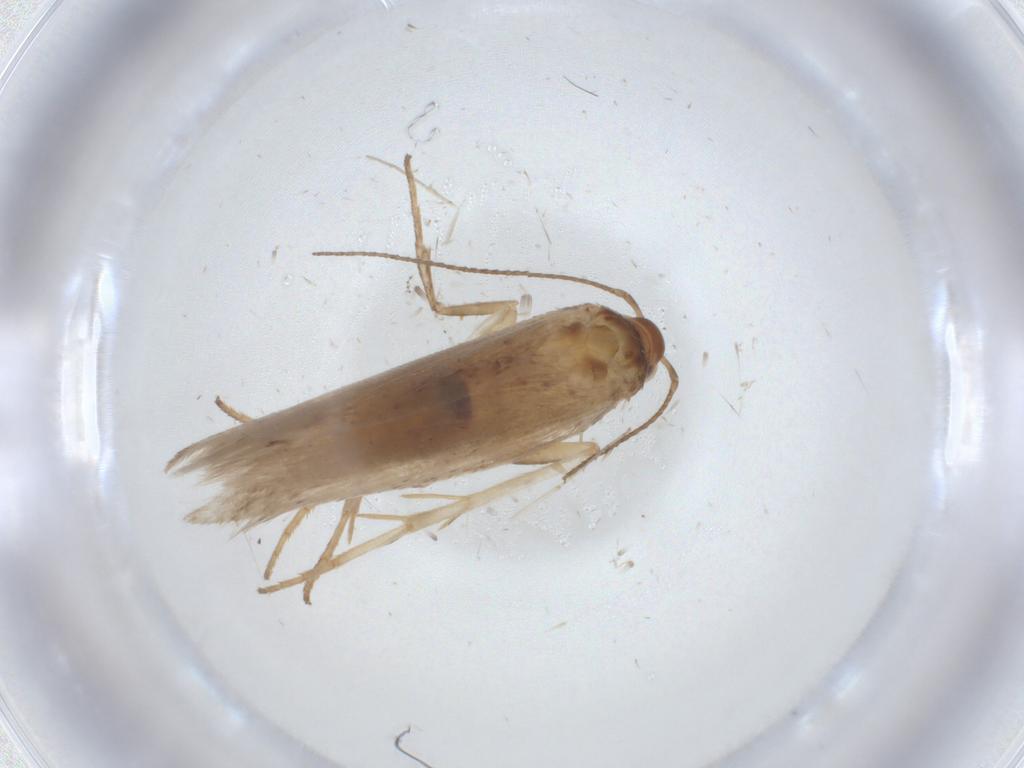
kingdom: Animalia
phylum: Arthropoda
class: Insecta
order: Lepidoptera
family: Gelechiidae
